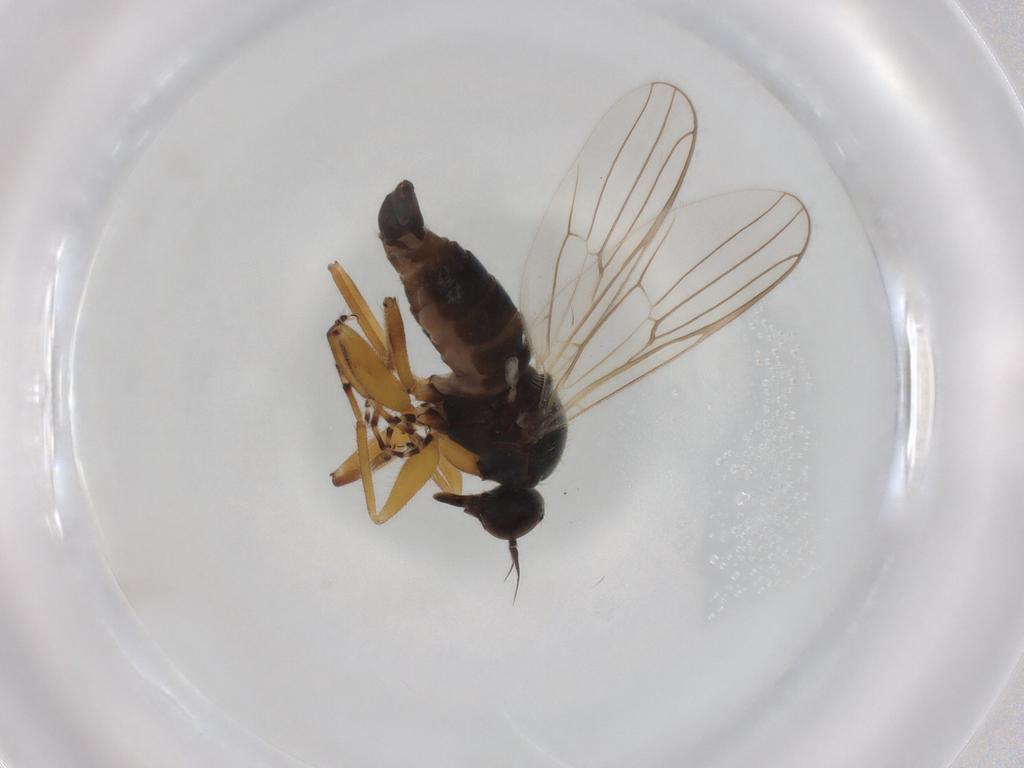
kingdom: Animalia
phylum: Arthropoda
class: Insecta
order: Diptera
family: Hybotidae
